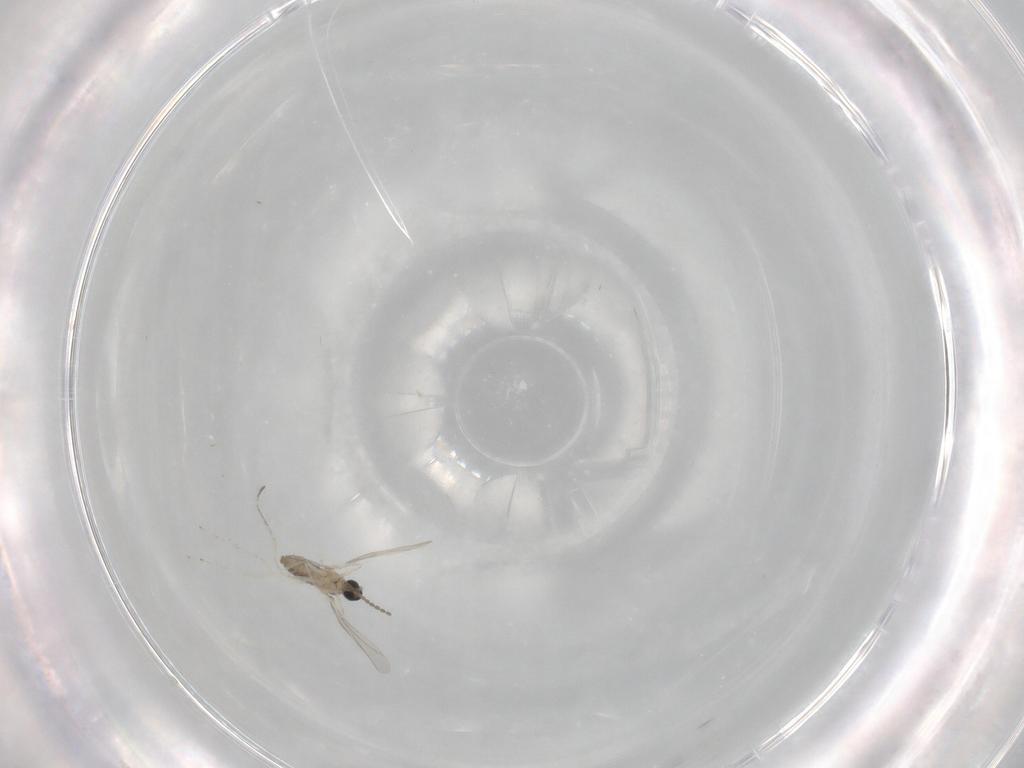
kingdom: Animalia
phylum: Arthropoda
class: Insecta
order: Diptera
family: Cecidomyiidae
